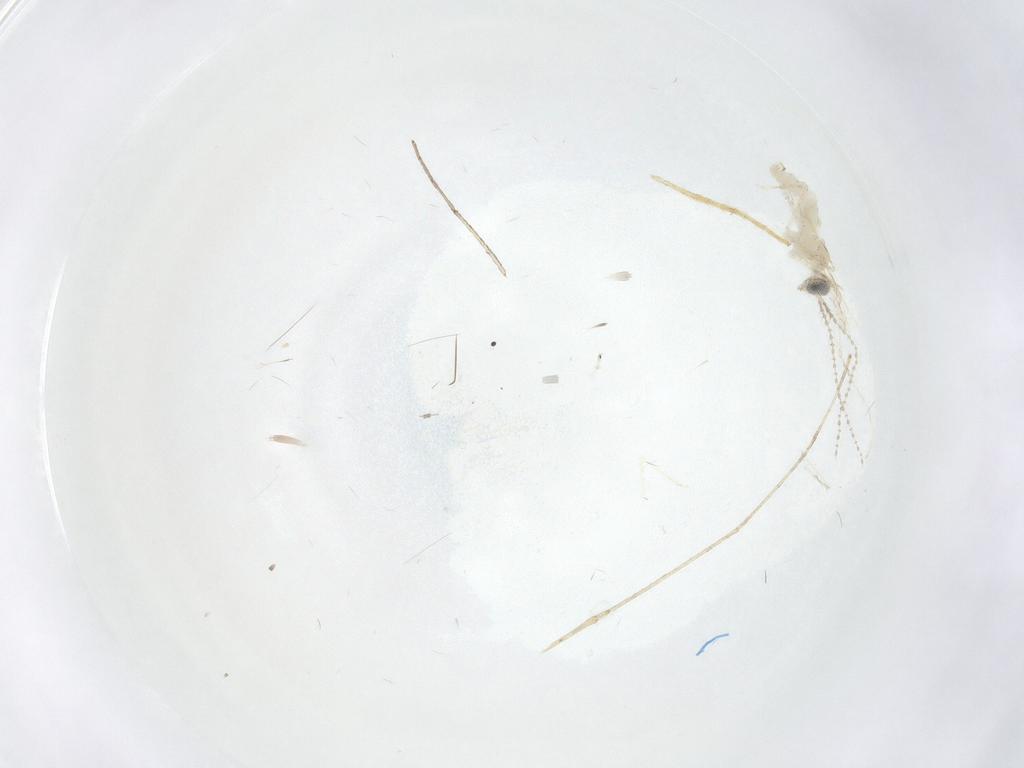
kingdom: Animalia
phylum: Arthropoda
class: Insecta
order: Diptera
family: Cecidomyiidae
